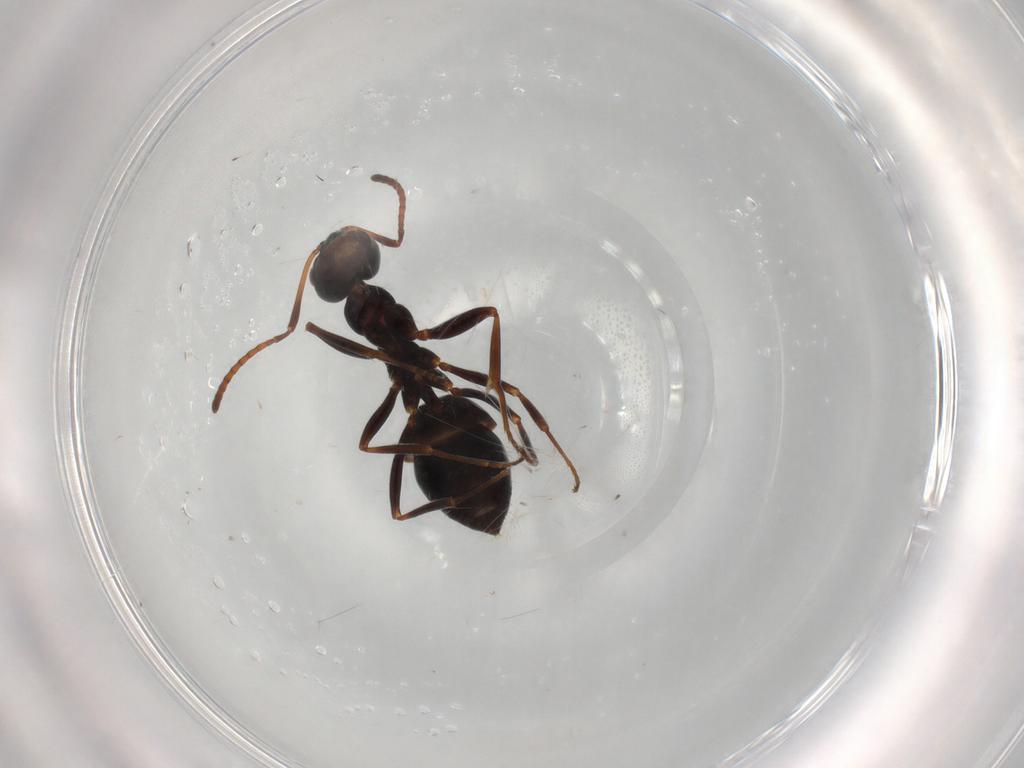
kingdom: Animalia
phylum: Arthropoda
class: Insecta
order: Hymenoptera
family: Formicidae
